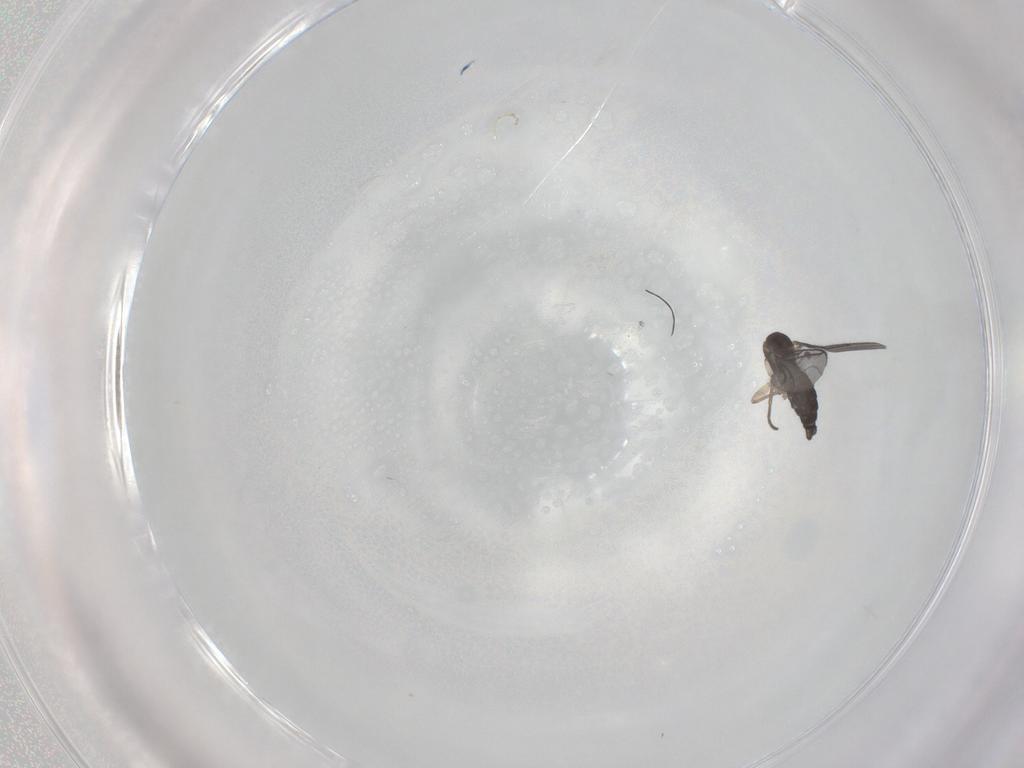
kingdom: Animalia
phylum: Arthropoda
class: Insecta
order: Diptera
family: Sciaridae
